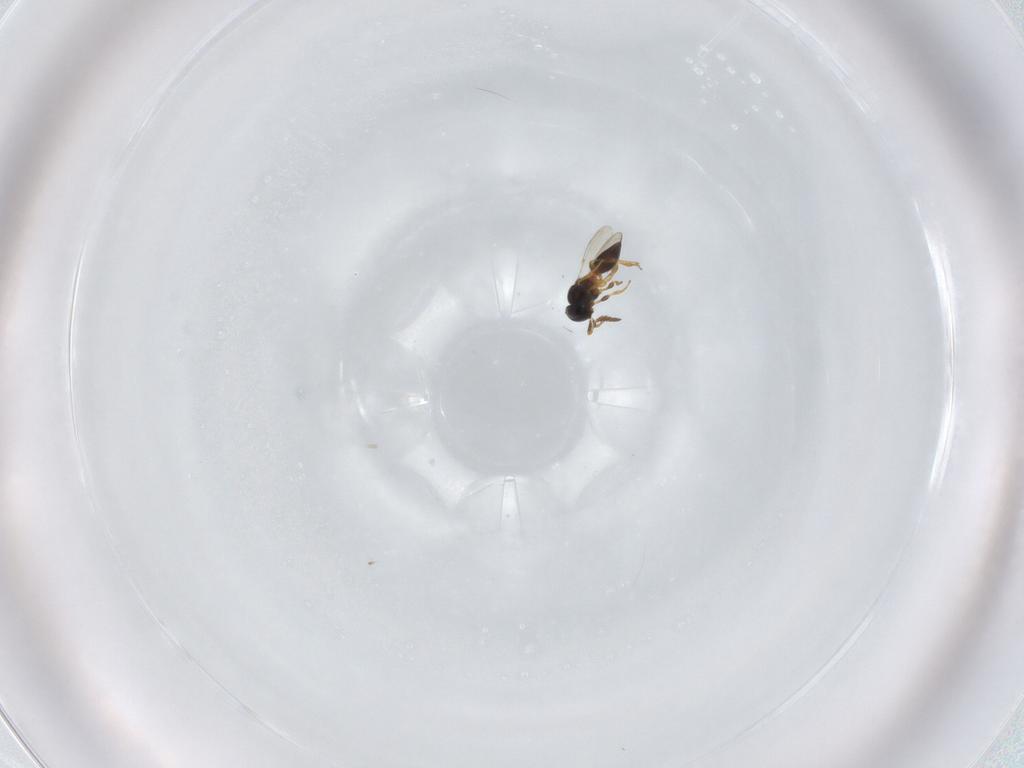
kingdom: Animalia
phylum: Arthropoda
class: Insecta
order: Hymenoptera
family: Platygastridae
